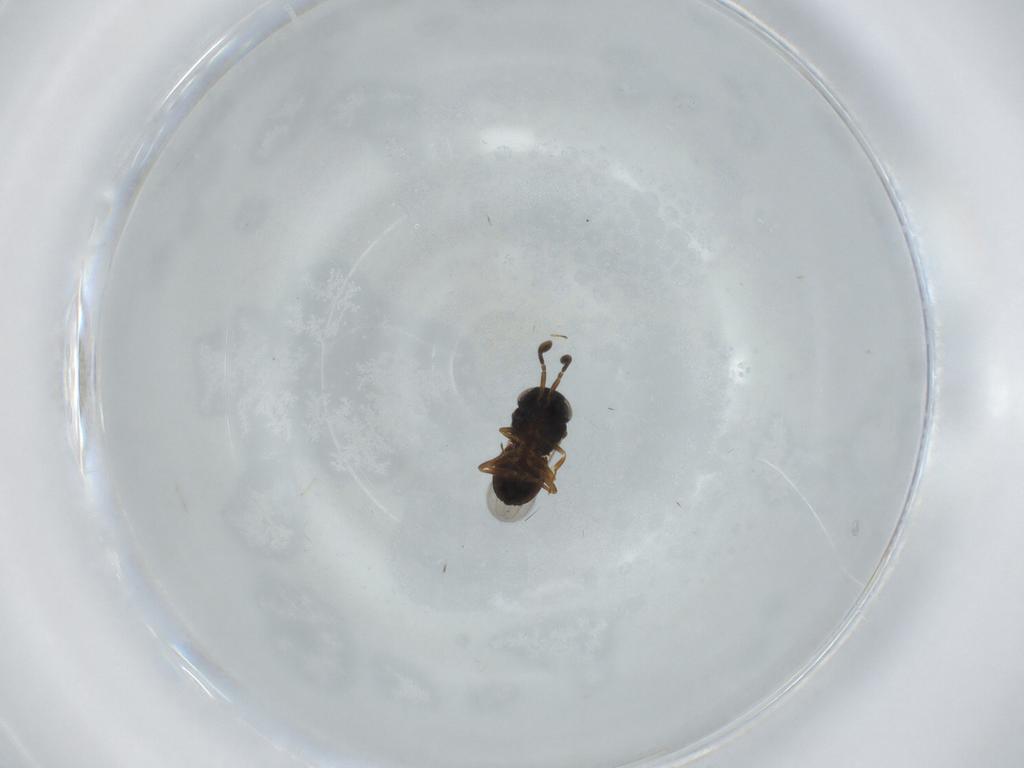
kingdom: Animalia
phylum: Arthropoda
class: Insecta
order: Coleoptera
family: Curculionidae
